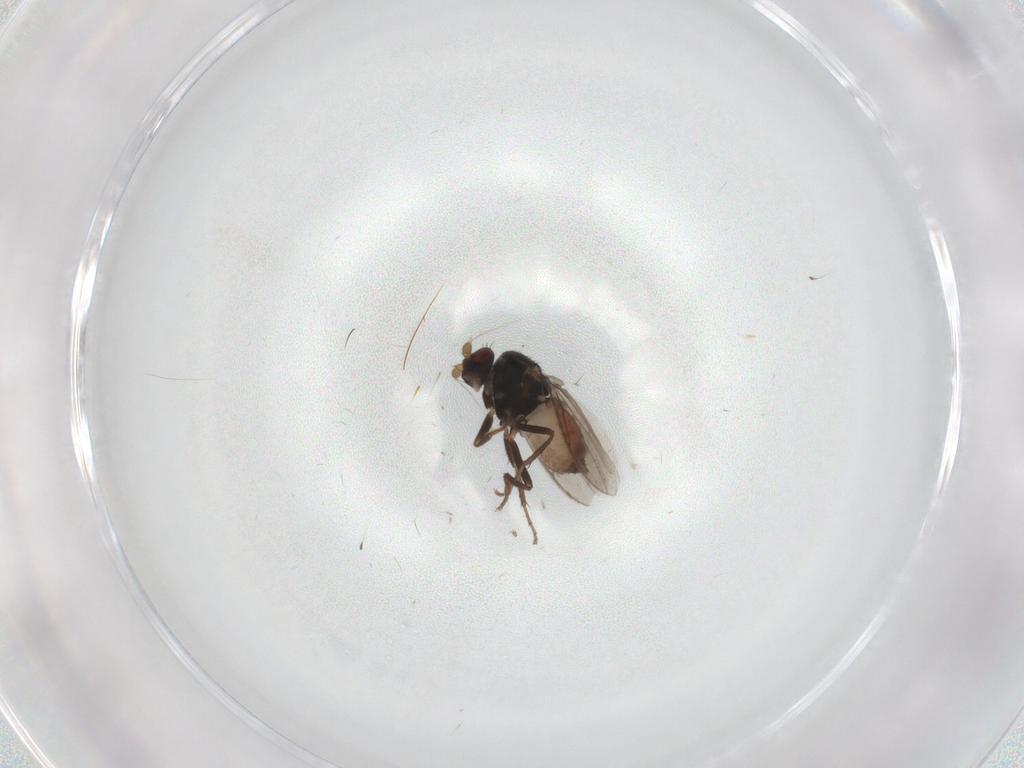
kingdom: Animalia
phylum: Arthropoda
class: Insecta
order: Diptera
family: Sphaeroceridae
